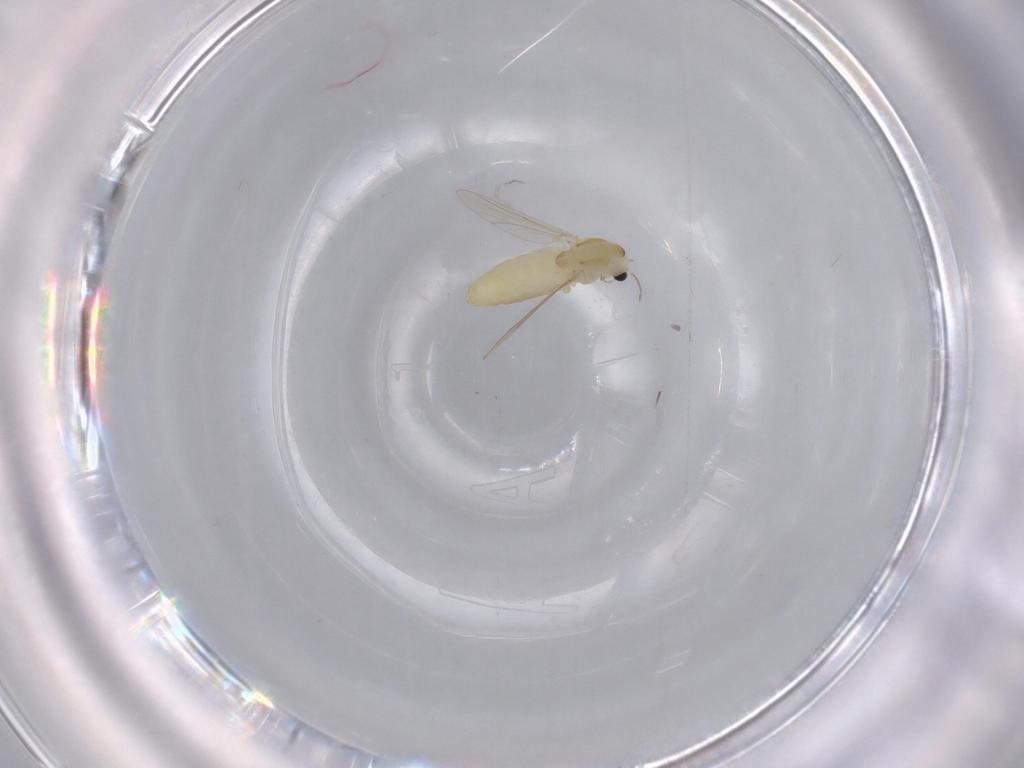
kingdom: Animalia
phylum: Arthropoda
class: Insecta
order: Diptera
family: Chironomidae
